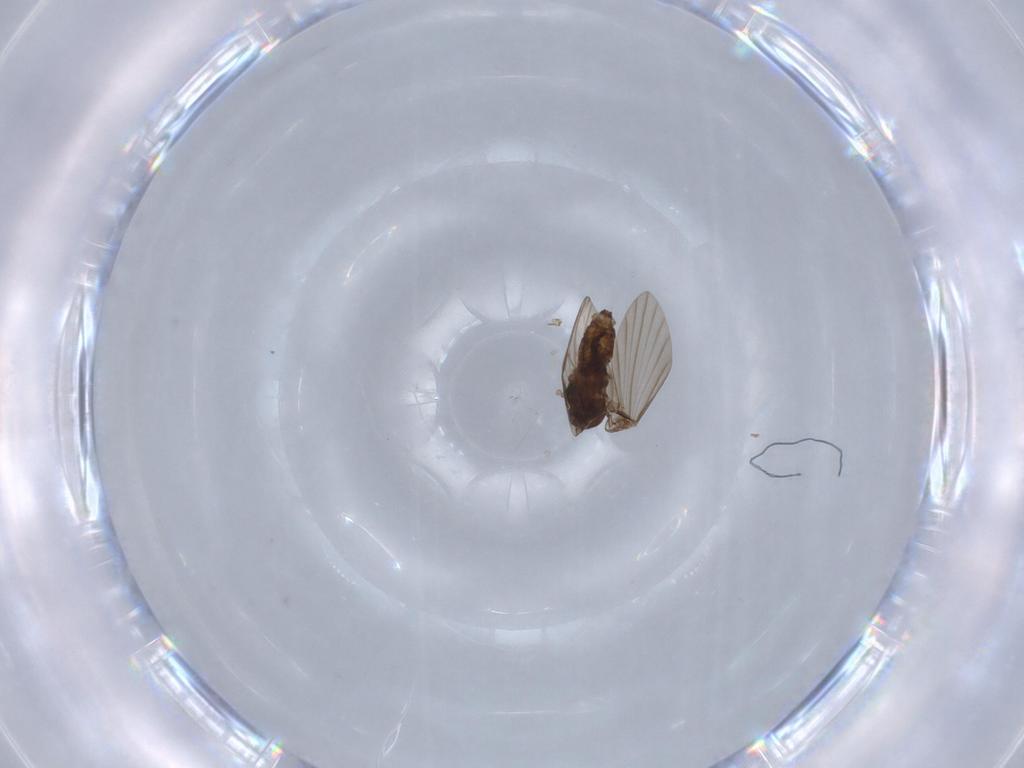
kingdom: Animalia
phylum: Arthropoda
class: Insecta
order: Diptera
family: Psychodidae
